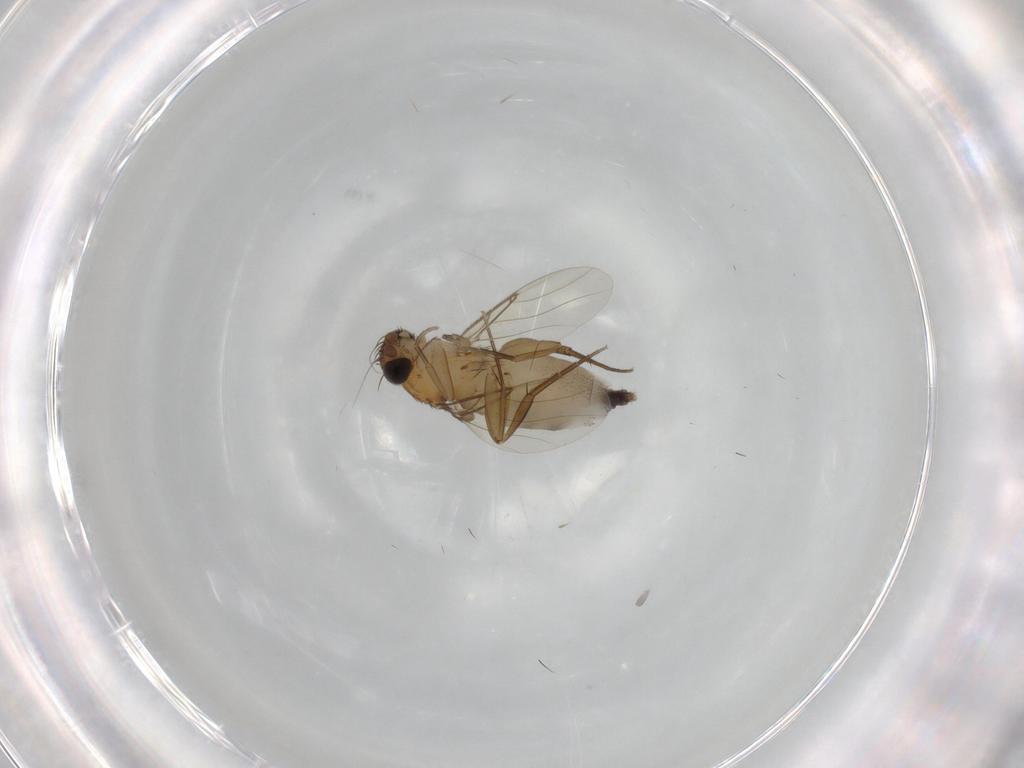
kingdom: Animalia
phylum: Arthropoda
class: Insecta
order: Diptera
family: Phoridae
